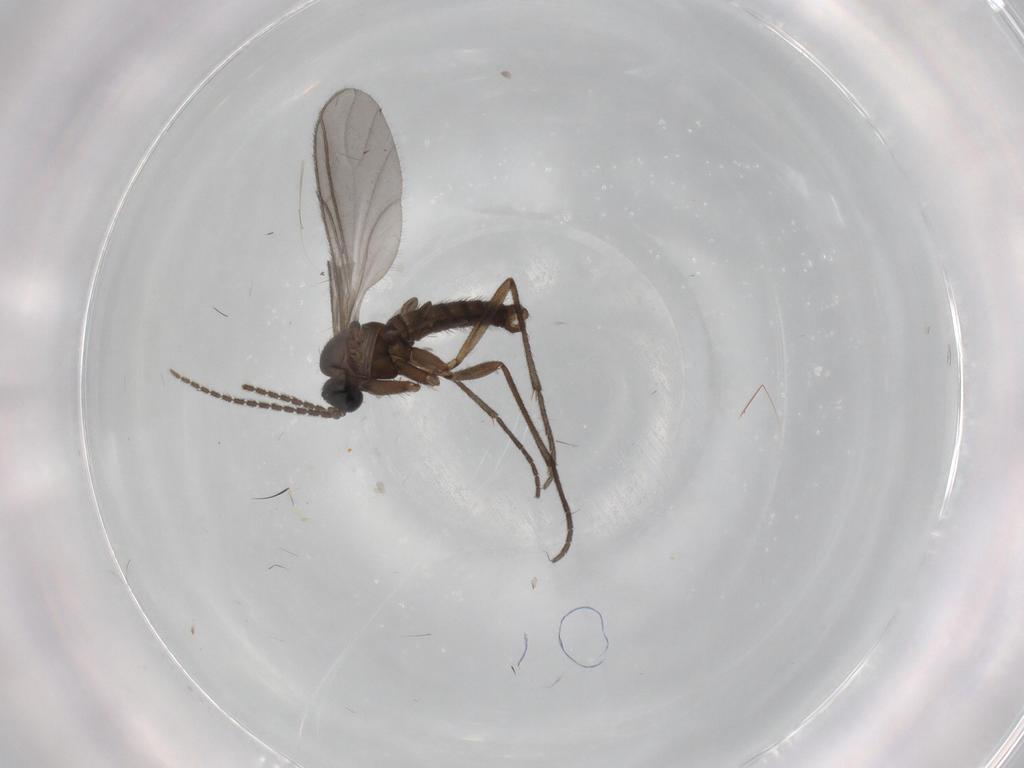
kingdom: Animalia
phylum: Arthropoda
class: Insecta
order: Diptera
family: Sciaridae
